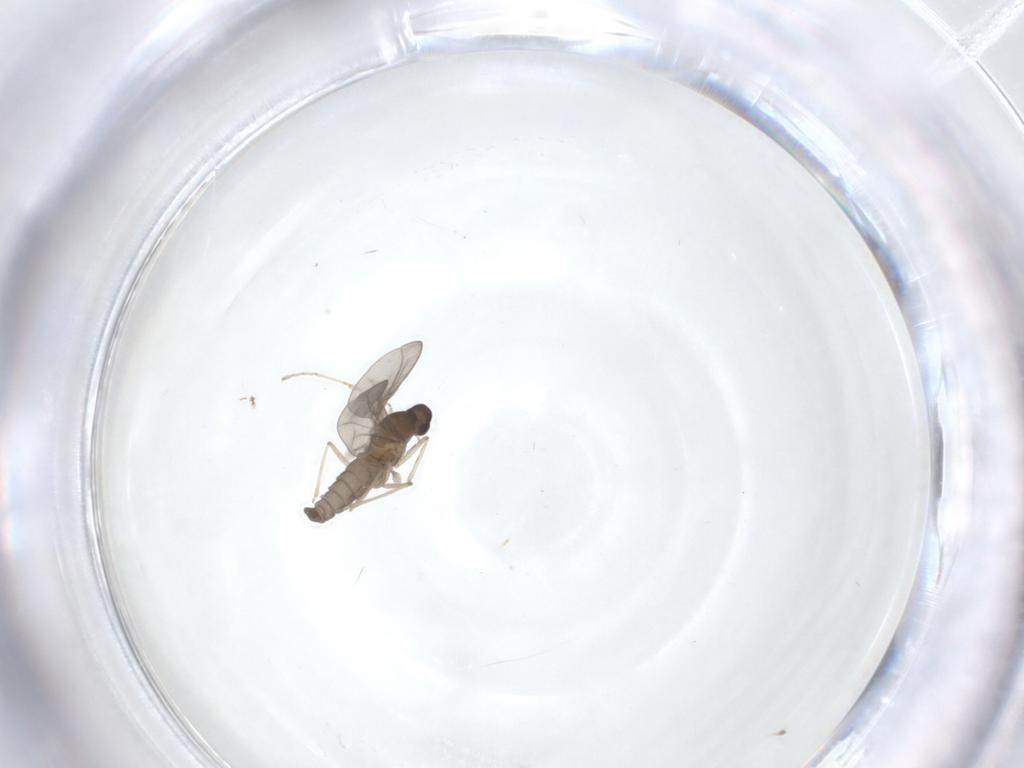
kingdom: Animalia
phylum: Arthropoda
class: Insecta
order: Diptera
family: Cecidomyiidae
